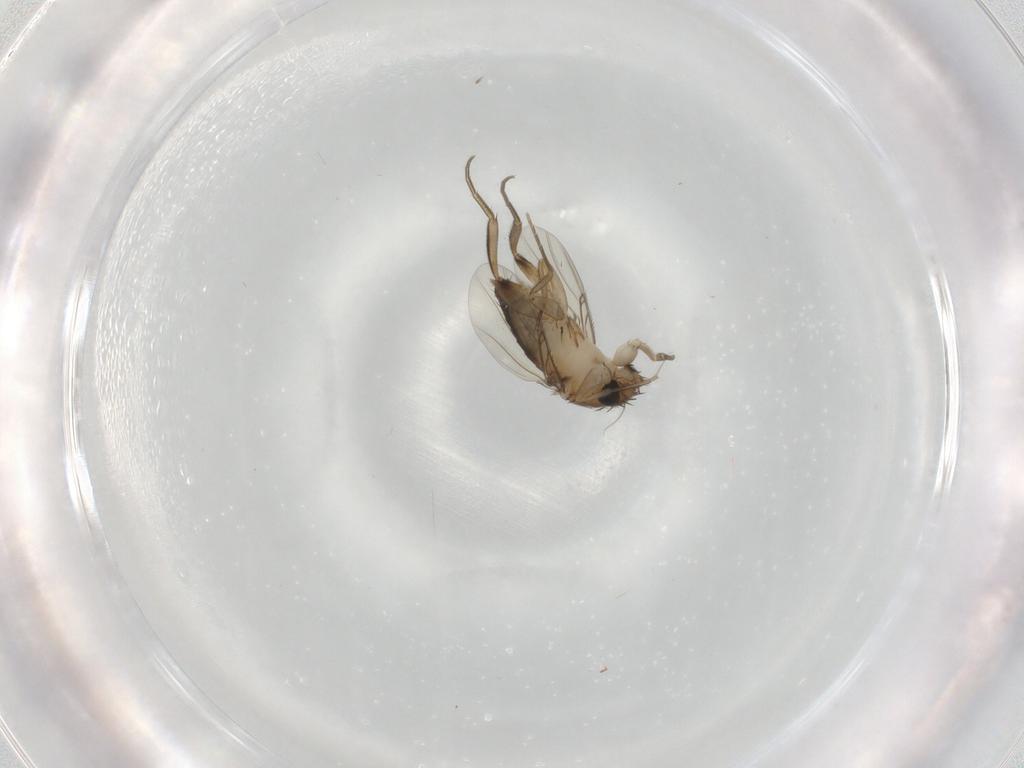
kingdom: Animalia
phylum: Arthropoda
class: Insecta
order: Diptera
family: Phoridae
